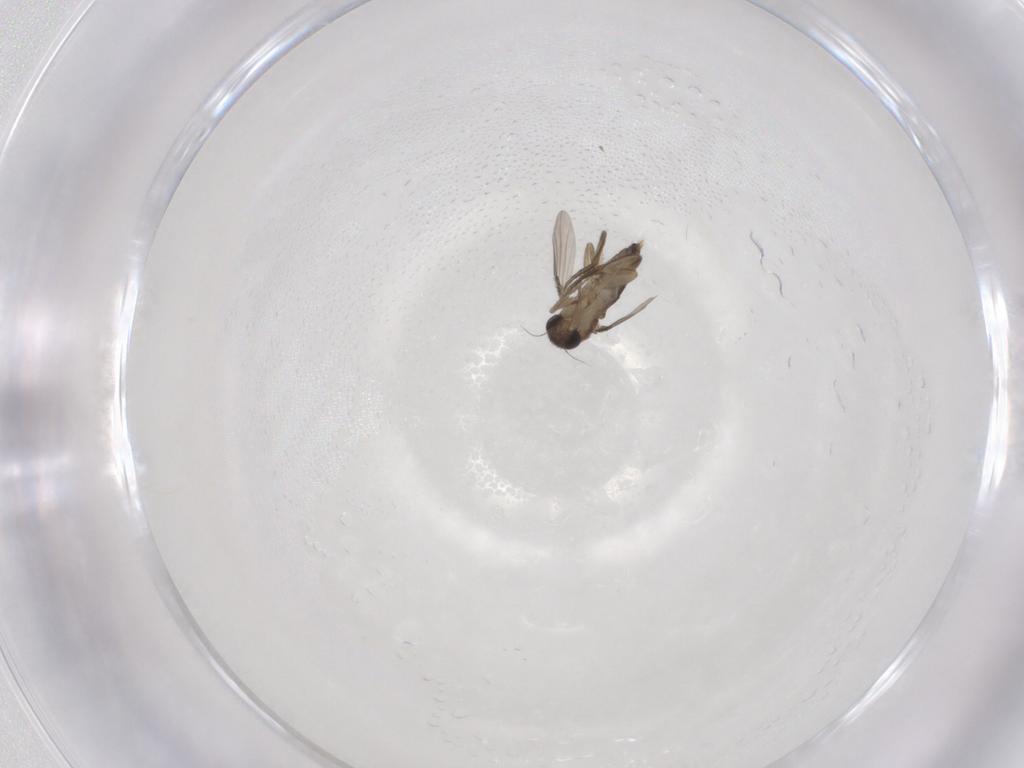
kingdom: Animalia
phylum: Arthropoda
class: Insecta
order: Diptera
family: Phoridae
